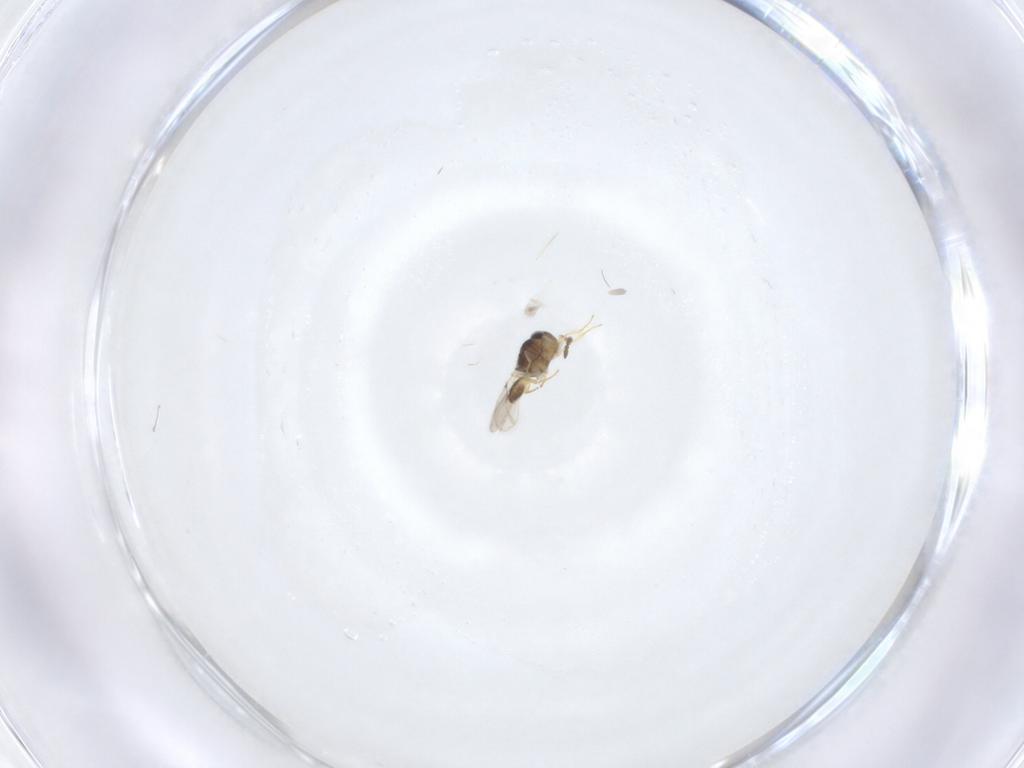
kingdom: Animalia
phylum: Arthropoda
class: Insecta
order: Hymenoptera
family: Scelionidae
